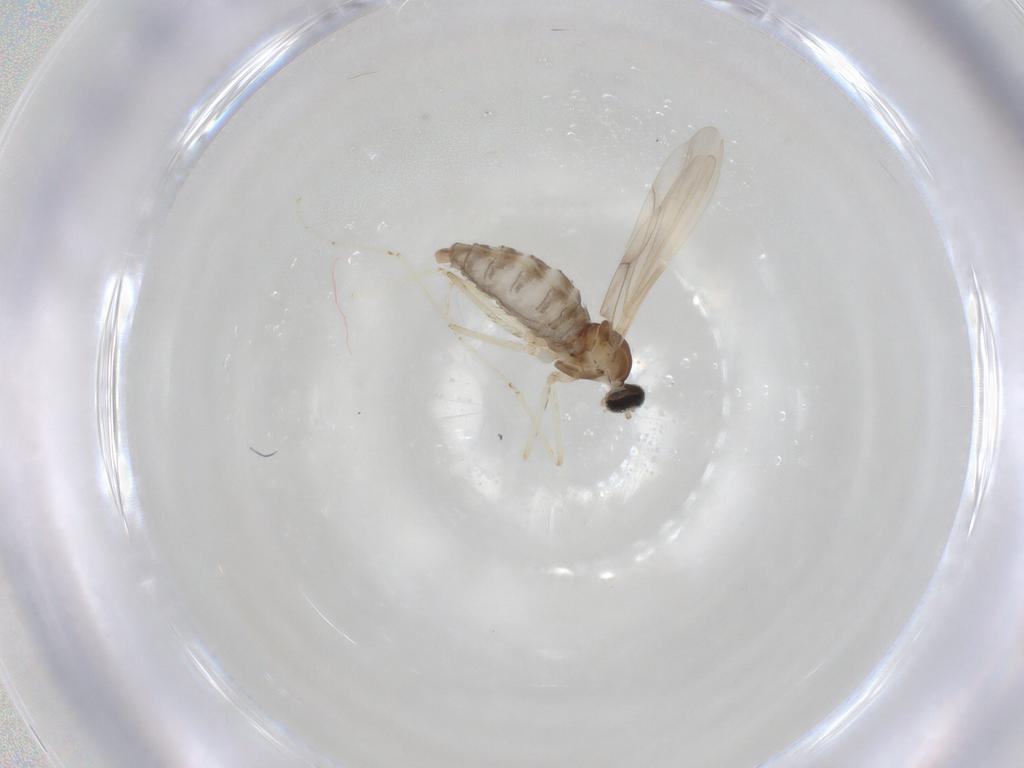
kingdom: Animalia
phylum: Arthropoda
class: Insecta
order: Diptera
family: Cecidomyiidae
